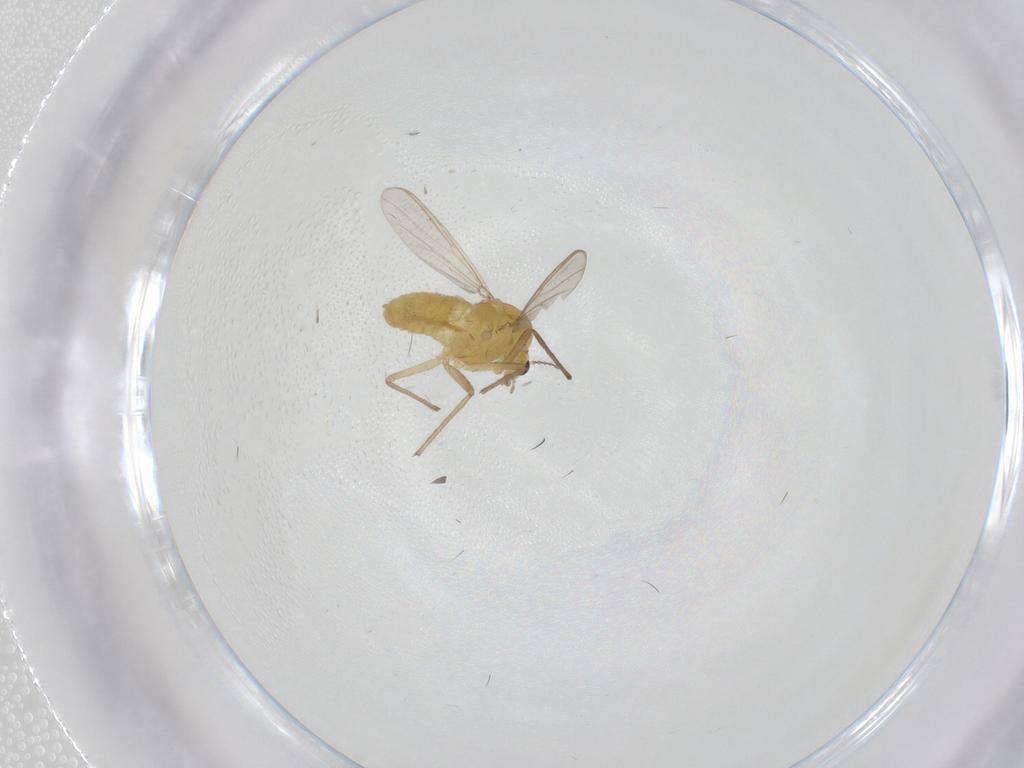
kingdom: Animalia
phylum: Arthropoda
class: Insecta
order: Diptera
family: Chironomidae
